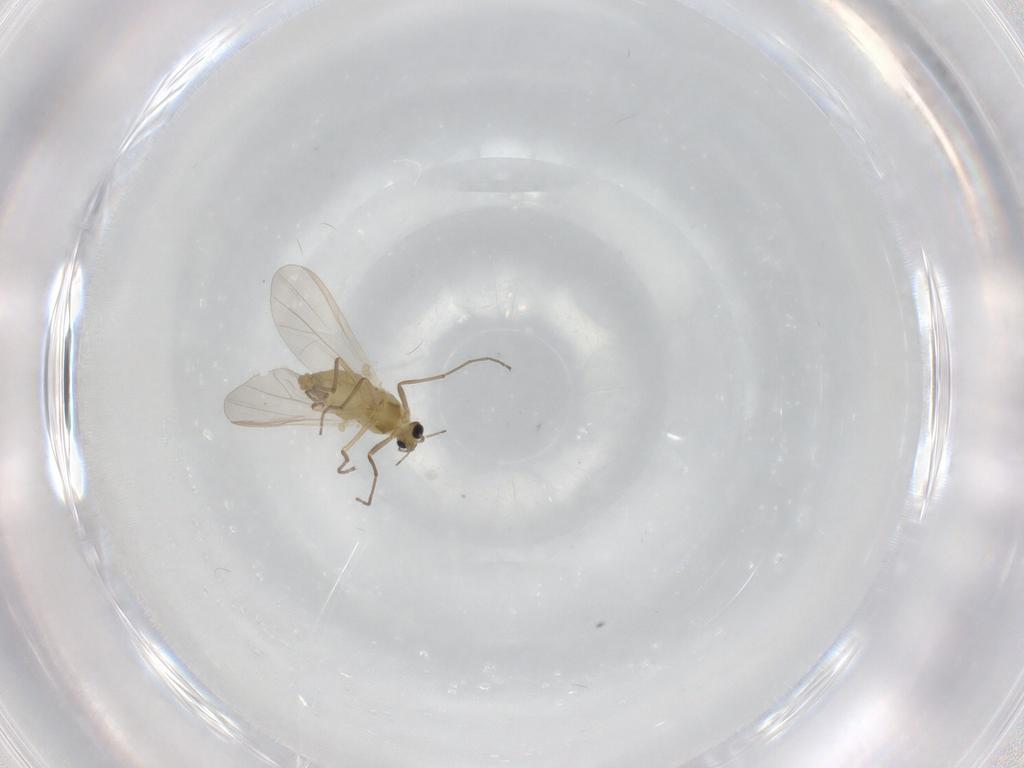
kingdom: Animalia
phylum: Arthropoda
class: Insecta
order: Diptera
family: Chironomidae
